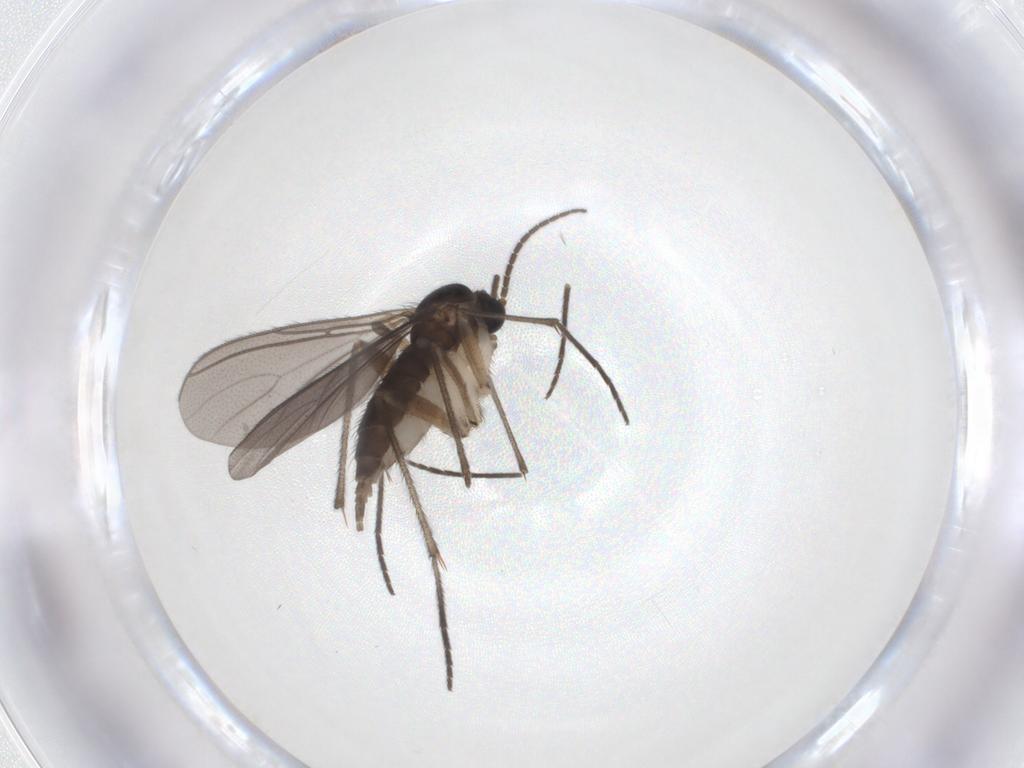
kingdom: Animalia
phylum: Arthropoda
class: Insecta
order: Diptera
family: Sciaridae
